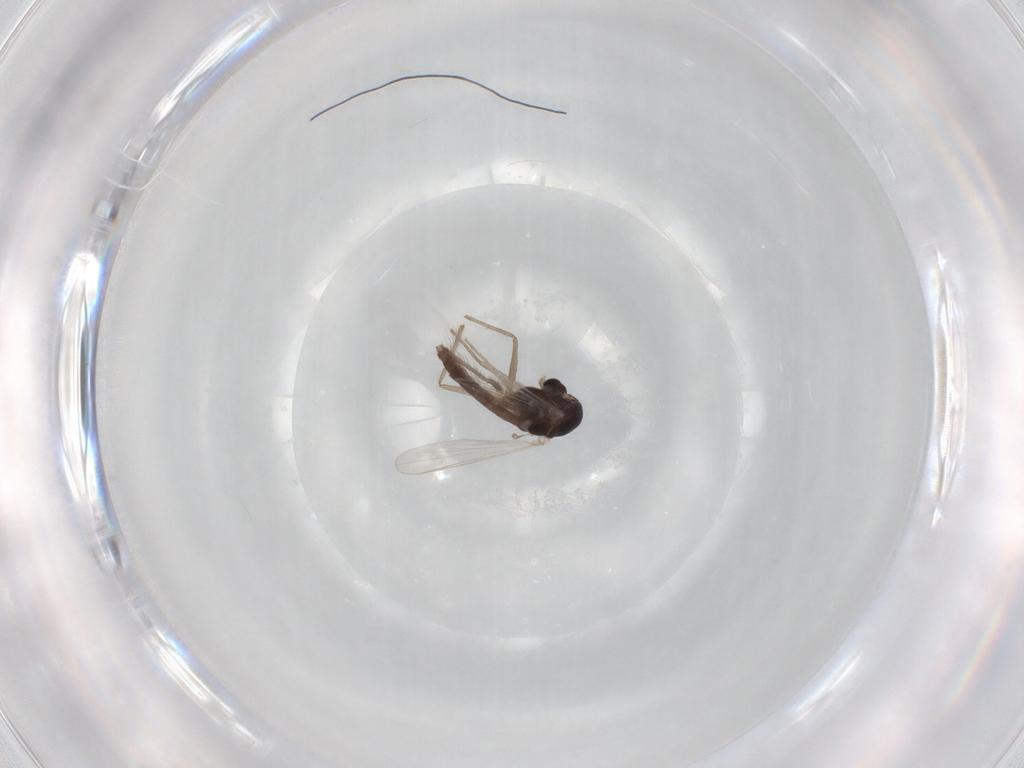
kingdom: Animalia
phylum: Arthropoda
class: Insecta
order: Diptera
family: Chironomidae
